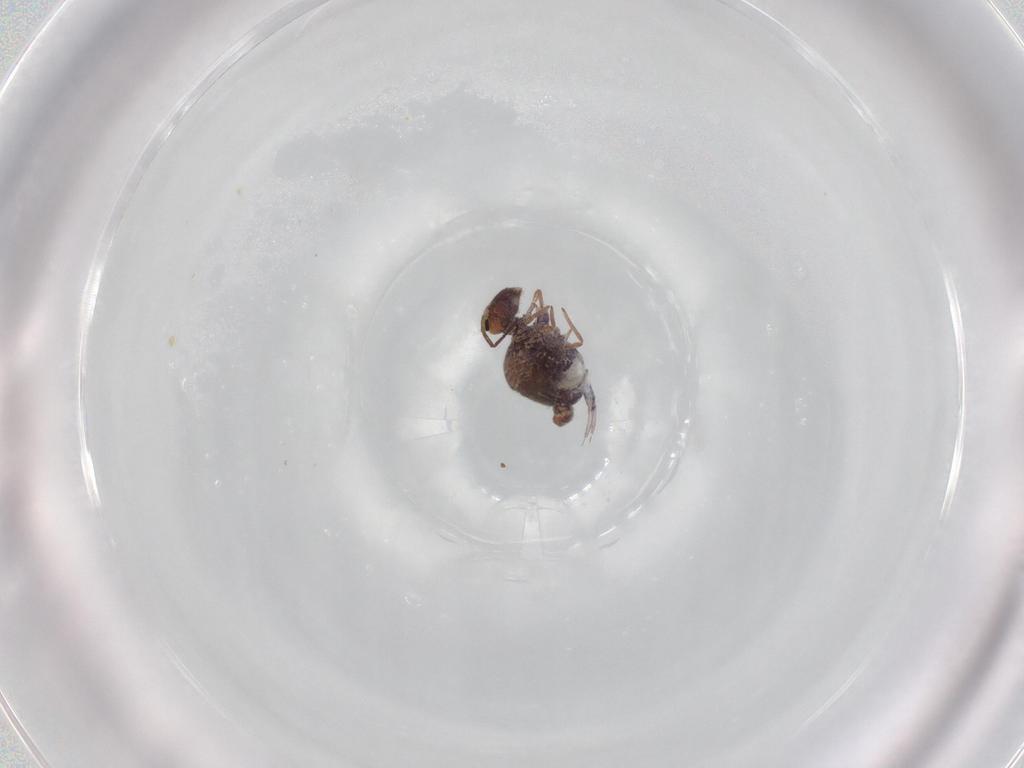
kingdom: Animalia
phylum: Arthropoda
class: Collembola
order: Symphypleona
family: Bourletiellidae
